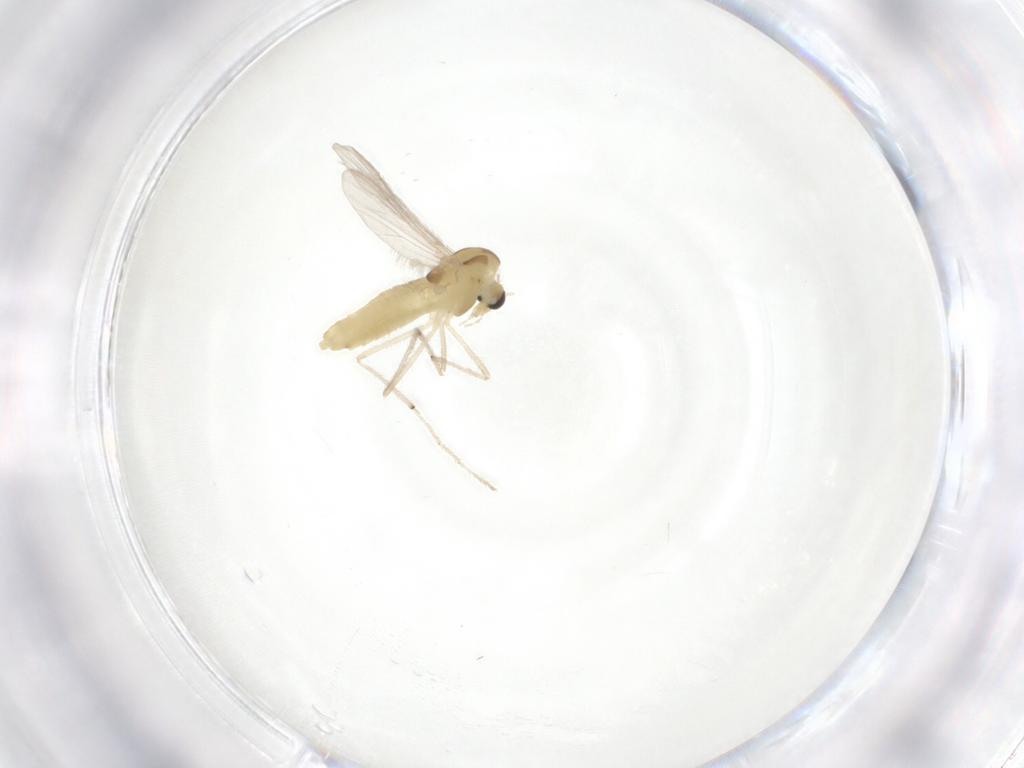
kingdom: Animalia
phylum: Arthropoda
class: Insecta
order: Diptera
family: Chironomidae
